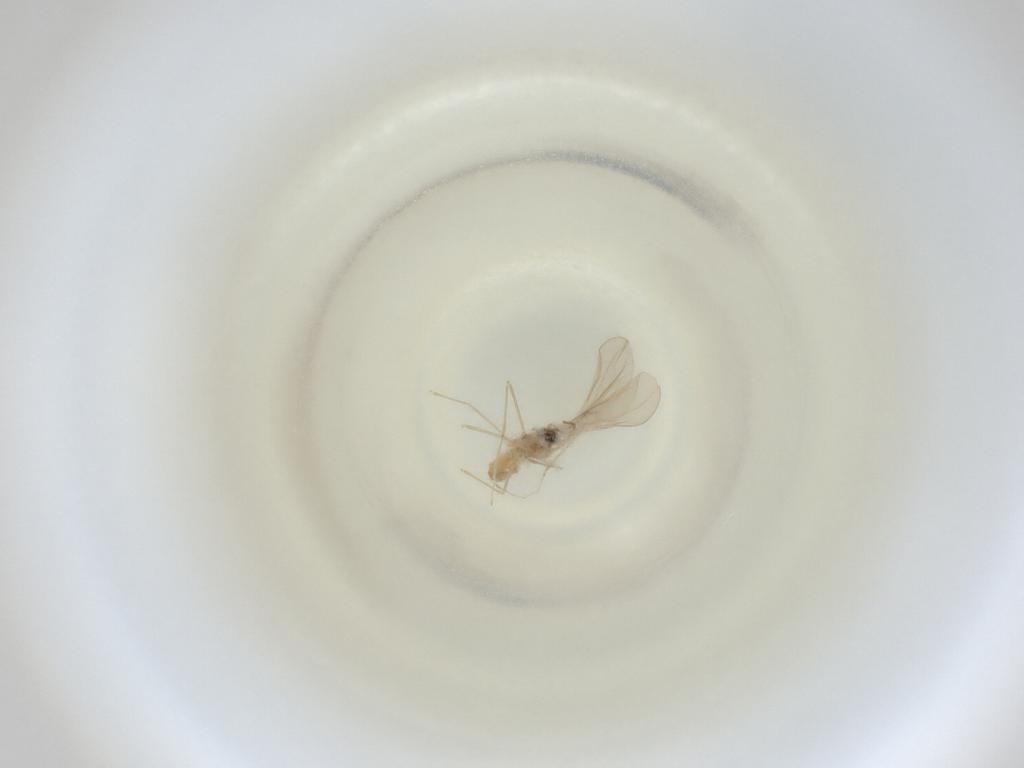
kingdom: Animalia
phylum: Arthropoda
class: Insecta
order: Diptera
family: Cecidomyiidae
